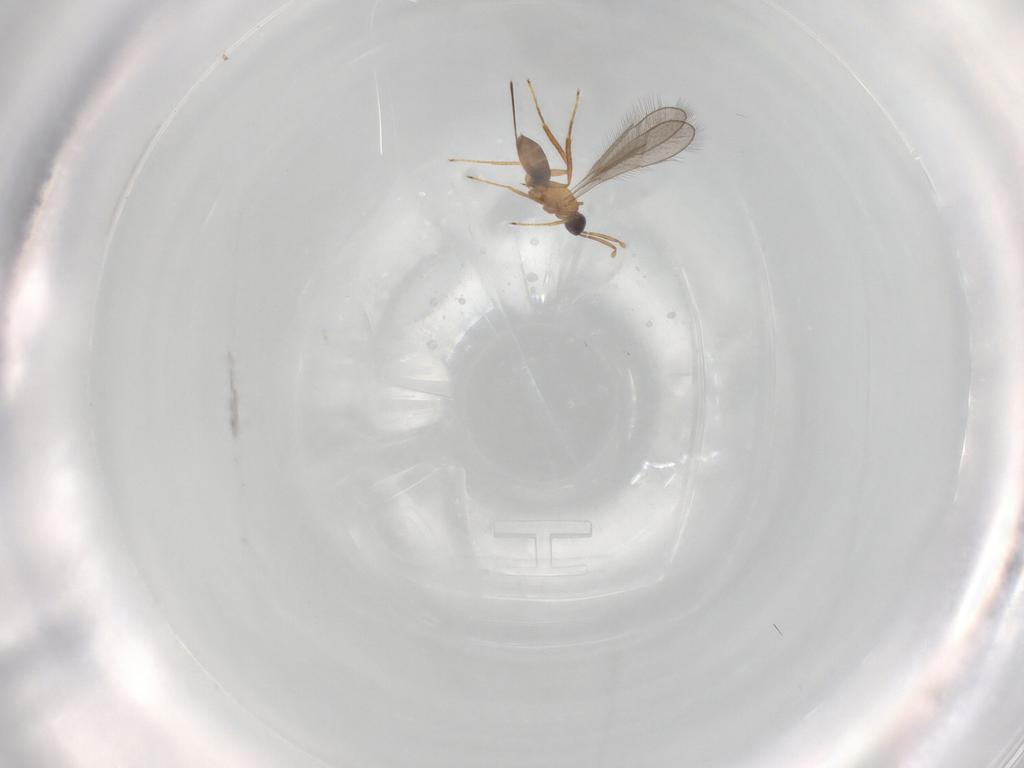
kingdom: Animalia
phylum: Arthropoda
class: Insecta
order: Hymenoptera
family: Mymaridae
